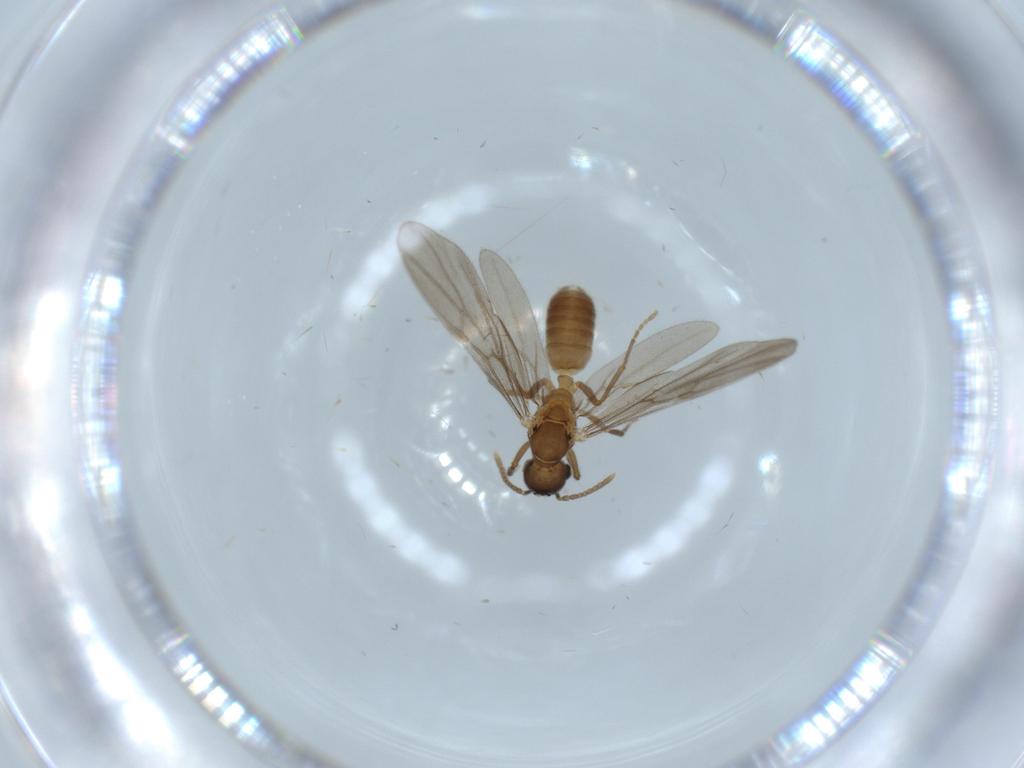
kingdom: Animalia
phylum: Arthropoda
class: Insecta
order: Hymenoptera
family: Formicidae
